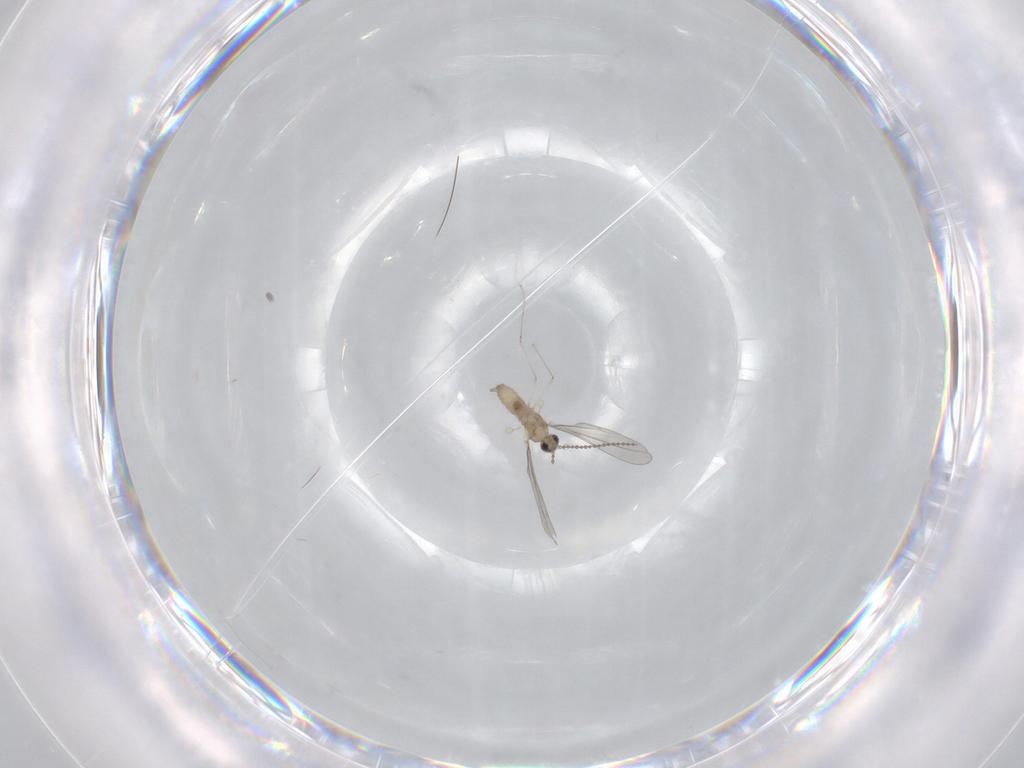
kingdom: Animalia
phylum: Arthropoda
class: Insecta
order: Diptera
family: Cecidomyiidae
